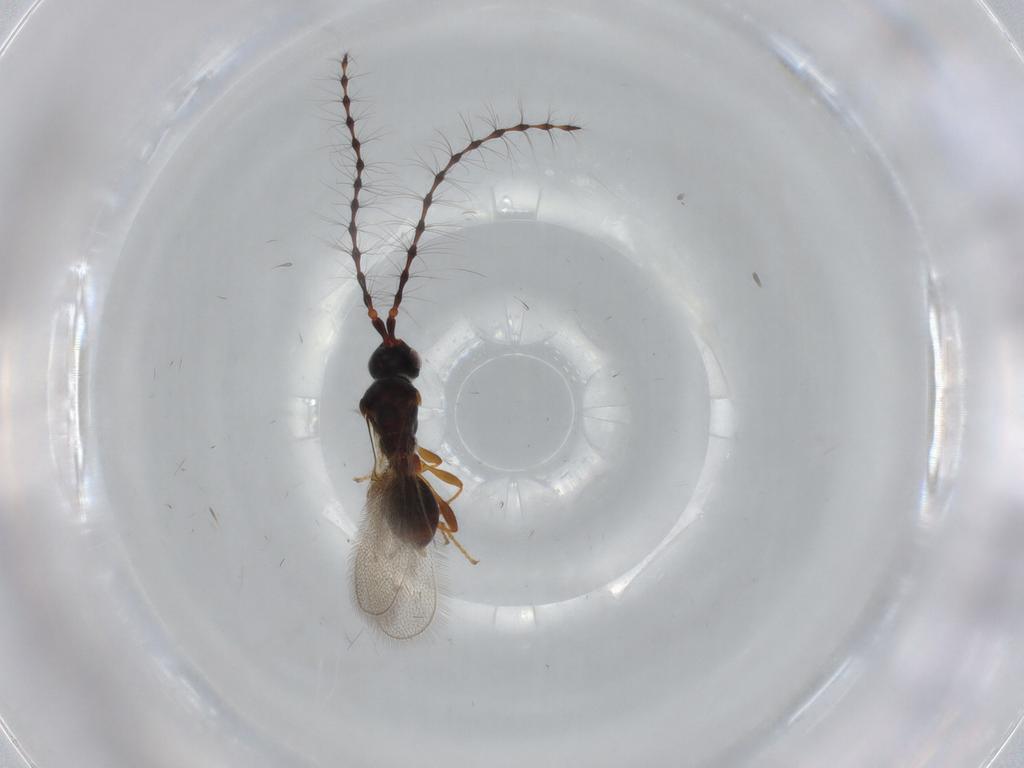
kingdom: Animalia
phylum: Arthropoda
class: Insecta
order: Hymenoptera
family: Diapriidae
